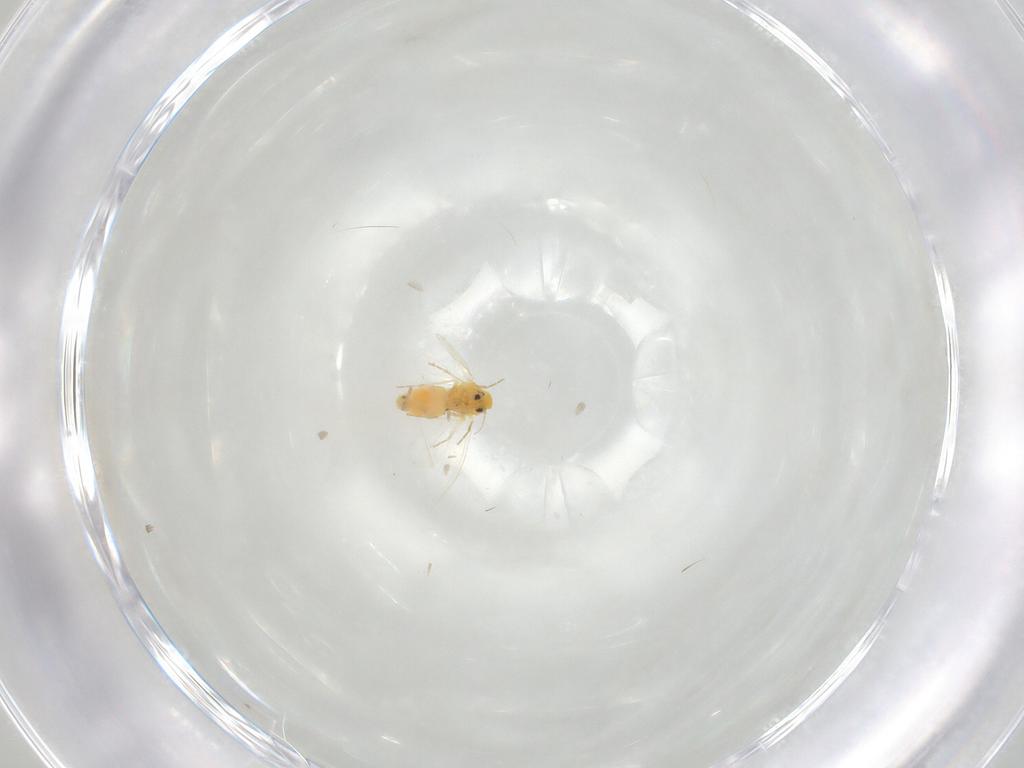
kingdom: Animalia
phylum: Arthropoda
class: Insecta
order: Hemiptera
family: Aleyrodidae
